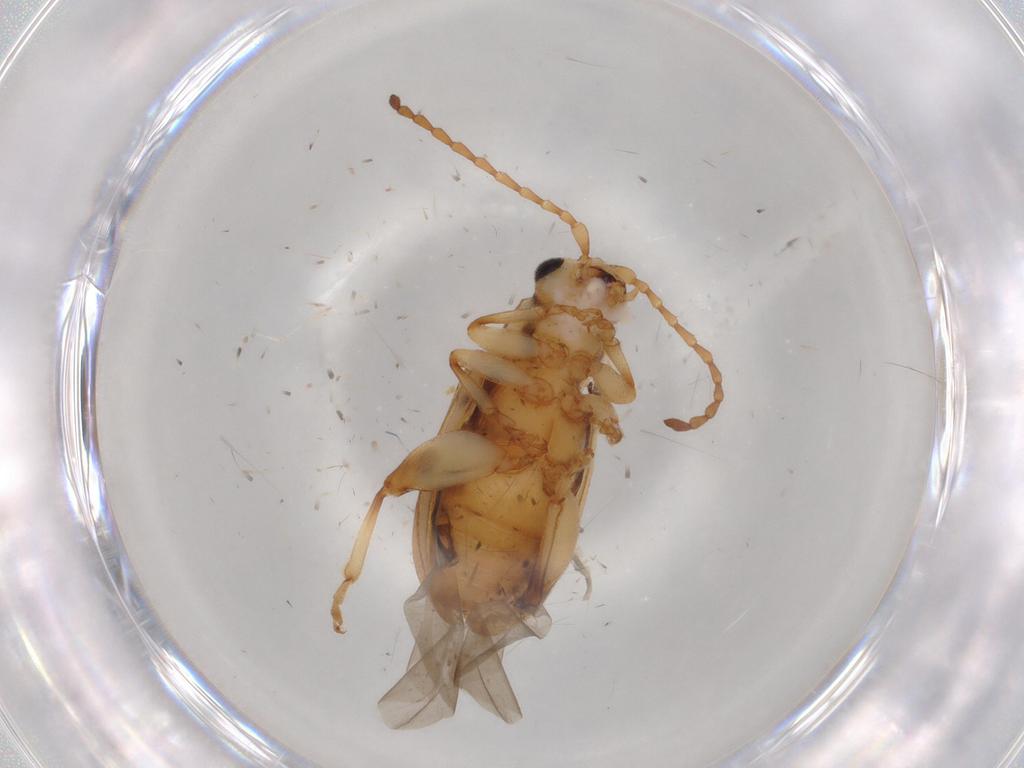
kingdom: Animalia
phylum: Arthropoda
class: Insecta
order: Coleoptera
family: Chrysomelidae
